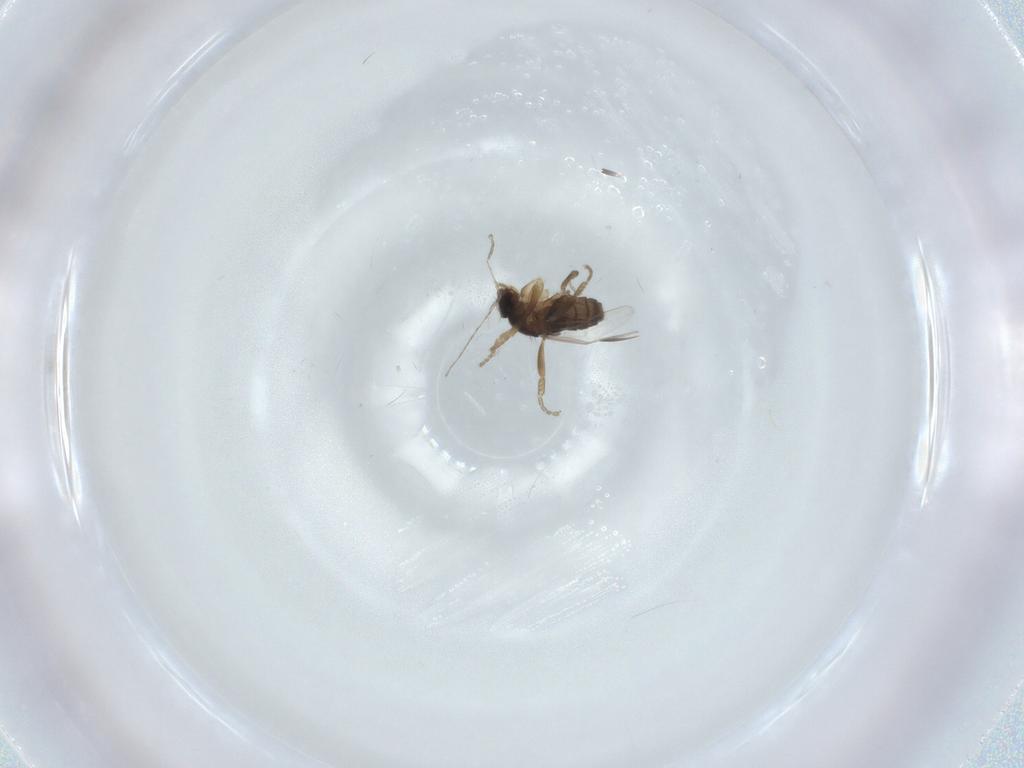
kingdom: Animalia
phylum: Arthropoda
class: Insecta
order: Diptera
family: Phoridae
